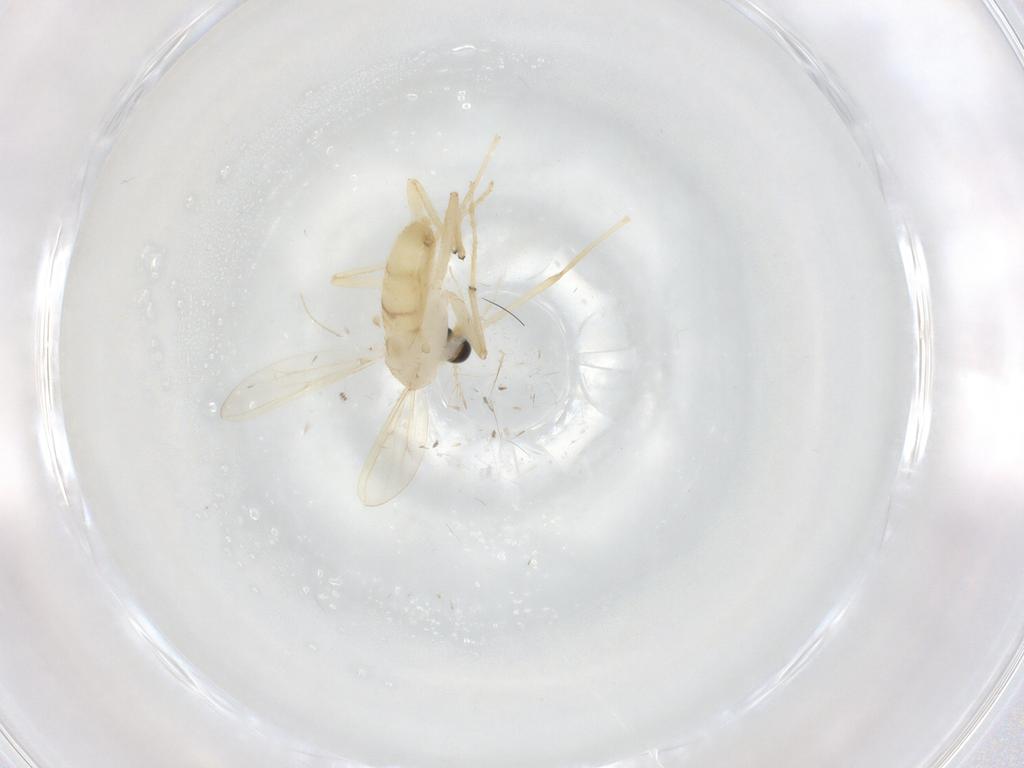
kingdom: Animalia
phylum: Arthropoda
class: Insecta
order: Diptera
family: Chironomidae
